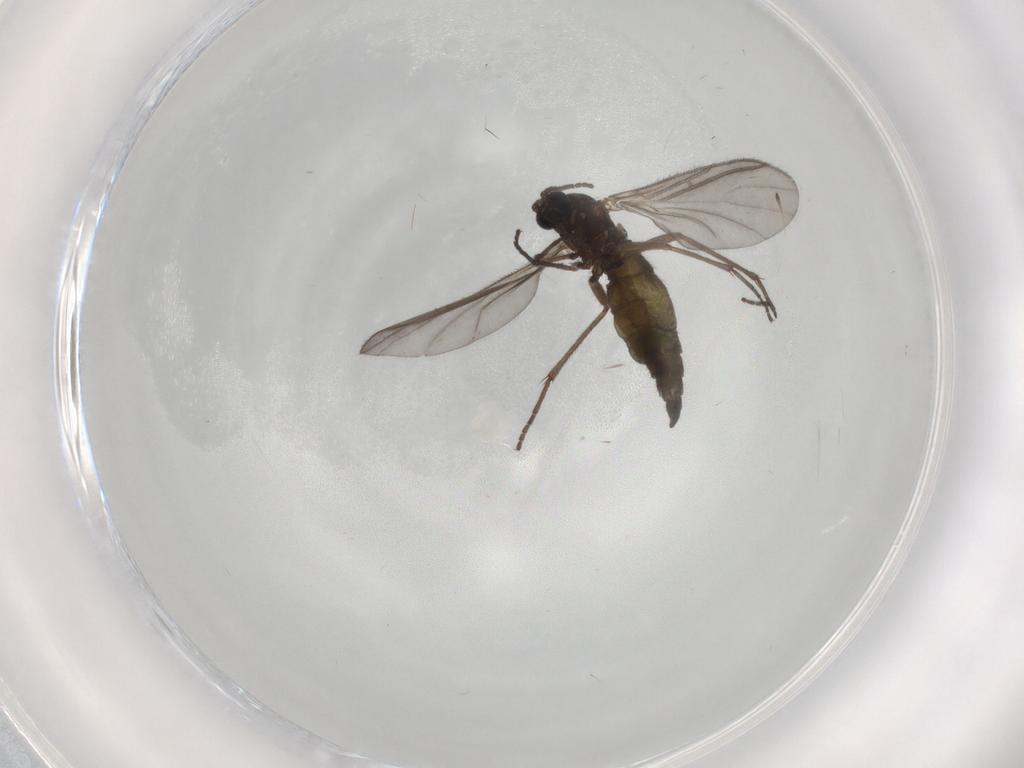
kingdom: Animalia
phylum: Arthropoda
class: Insecta
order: Diptera
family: Sciaridae
